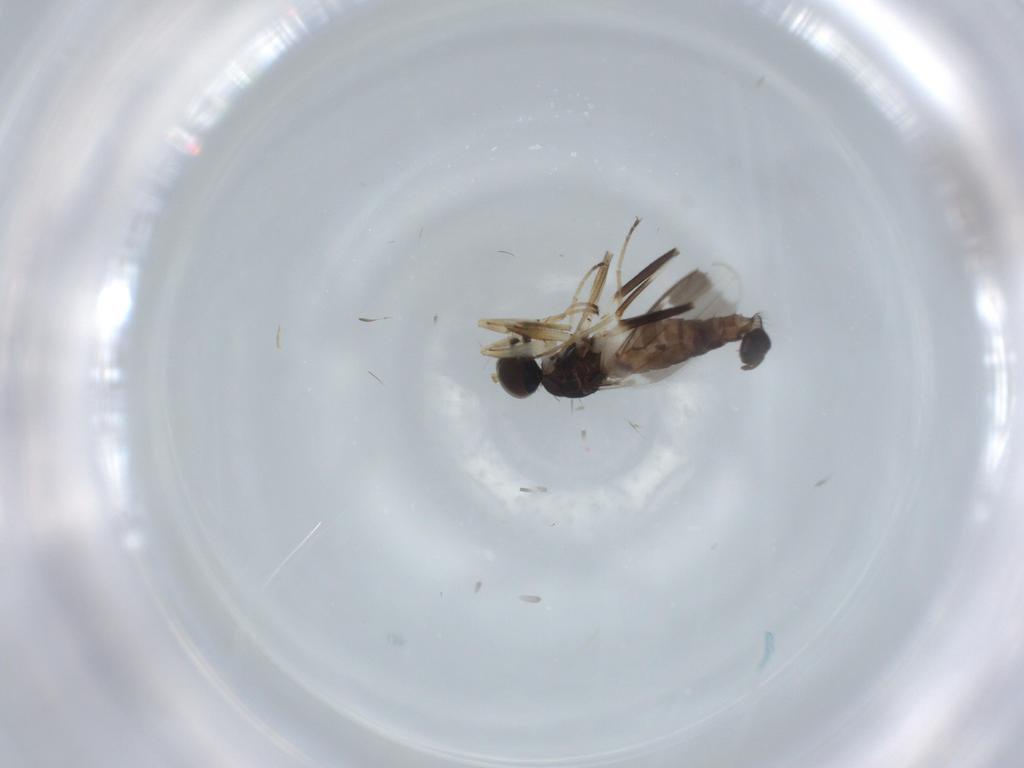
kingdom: Animalia
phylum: Arthropoda
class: Insecta
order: Diptera
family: Hybotidae
